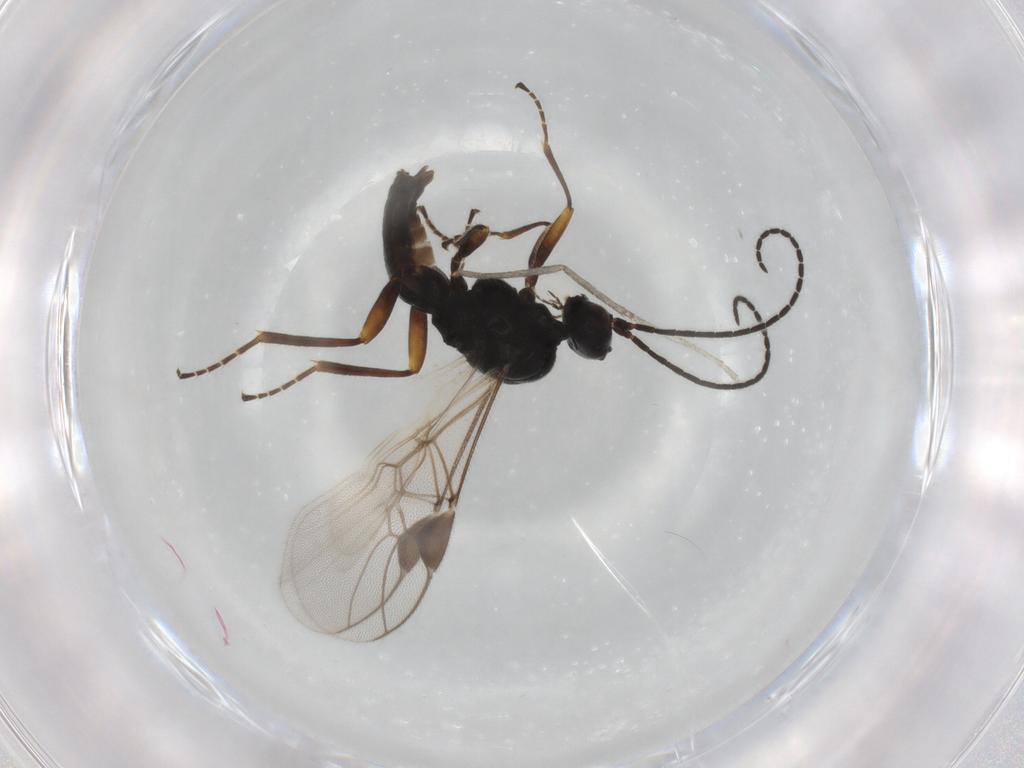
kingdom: Animalia
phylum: Arthropoda
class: Insecta
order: Hymenoptera
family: Braconidae
